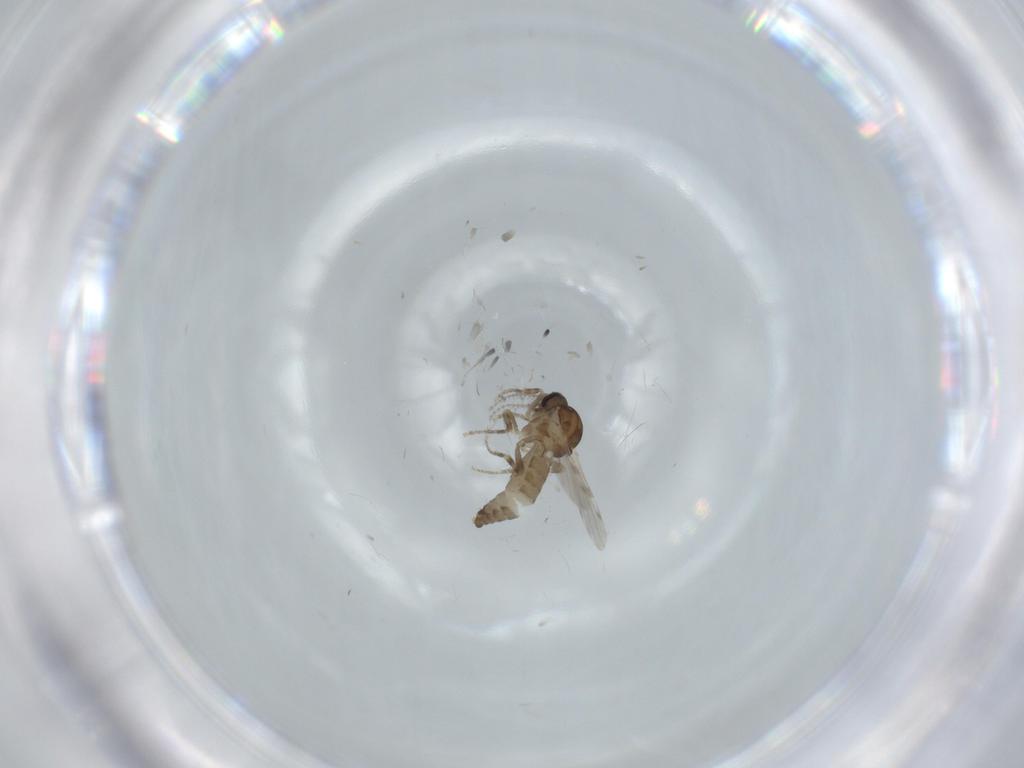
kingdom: Animalia
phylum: Arthropoda
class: Insecta
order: Diptera
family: Ceratopogonidae
